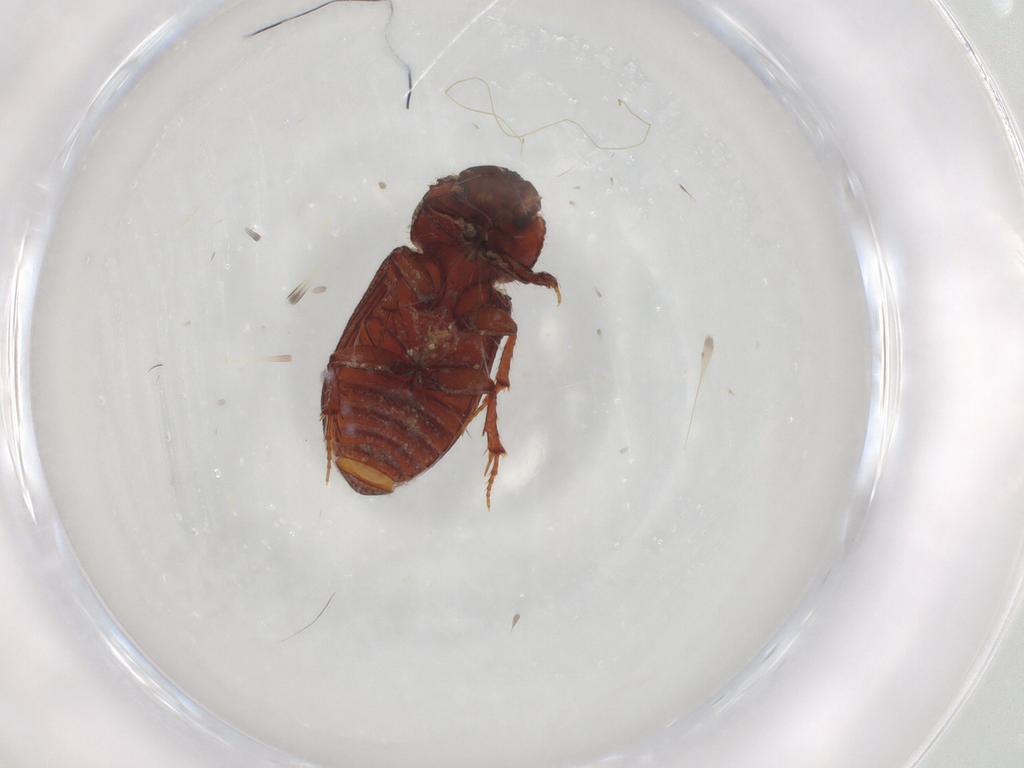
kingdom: Animalia
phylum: Arthropoda
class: Insecta
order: Coleoptera
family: Scarabaeidae
